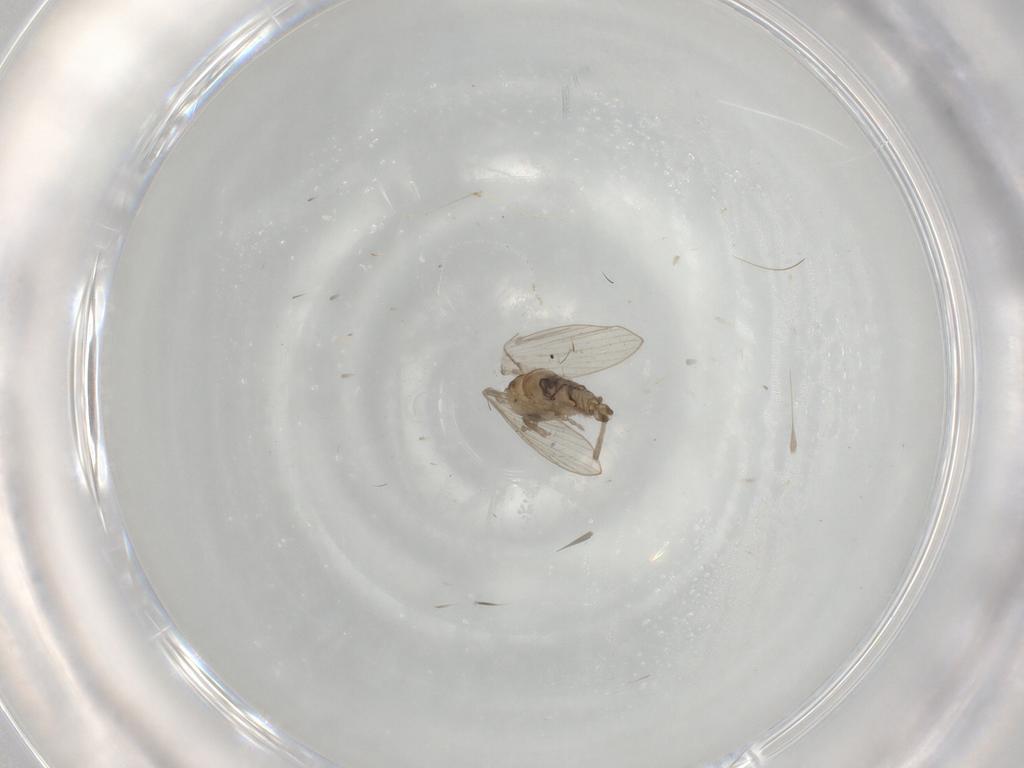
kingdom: Animalia
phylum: Arthropoda
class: Insecta
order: Diptera
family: Psychodidae
